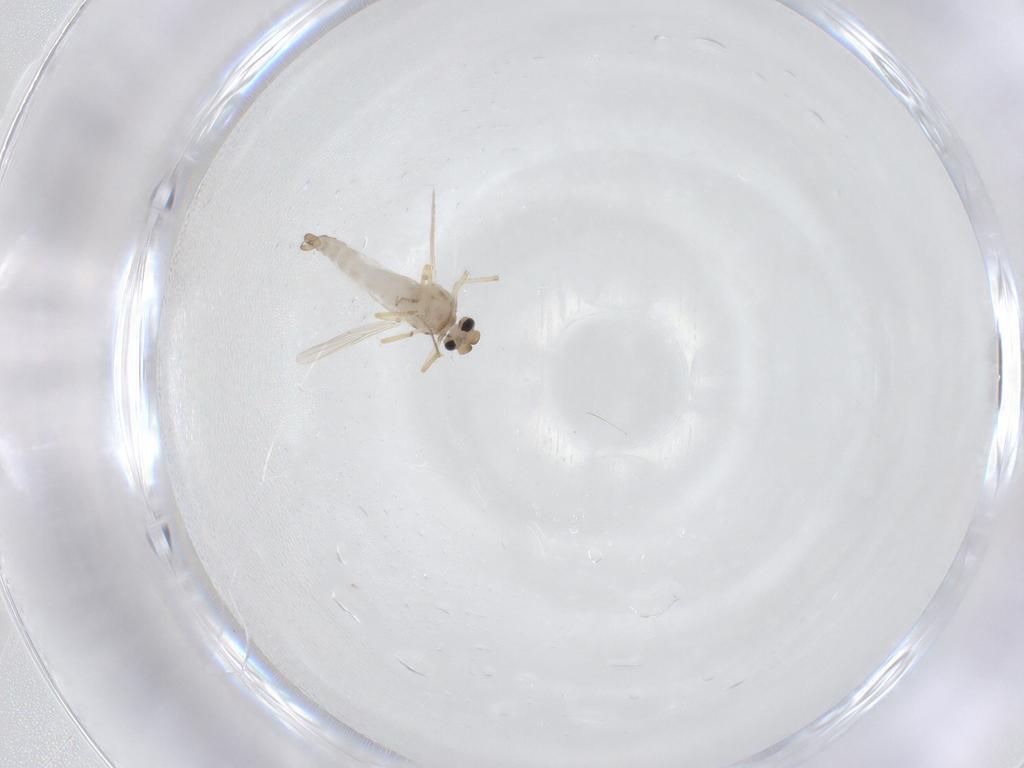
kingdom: Animalia
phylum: Arthropoda
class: Insecta
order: Diptera
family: Ceratopogonidae
